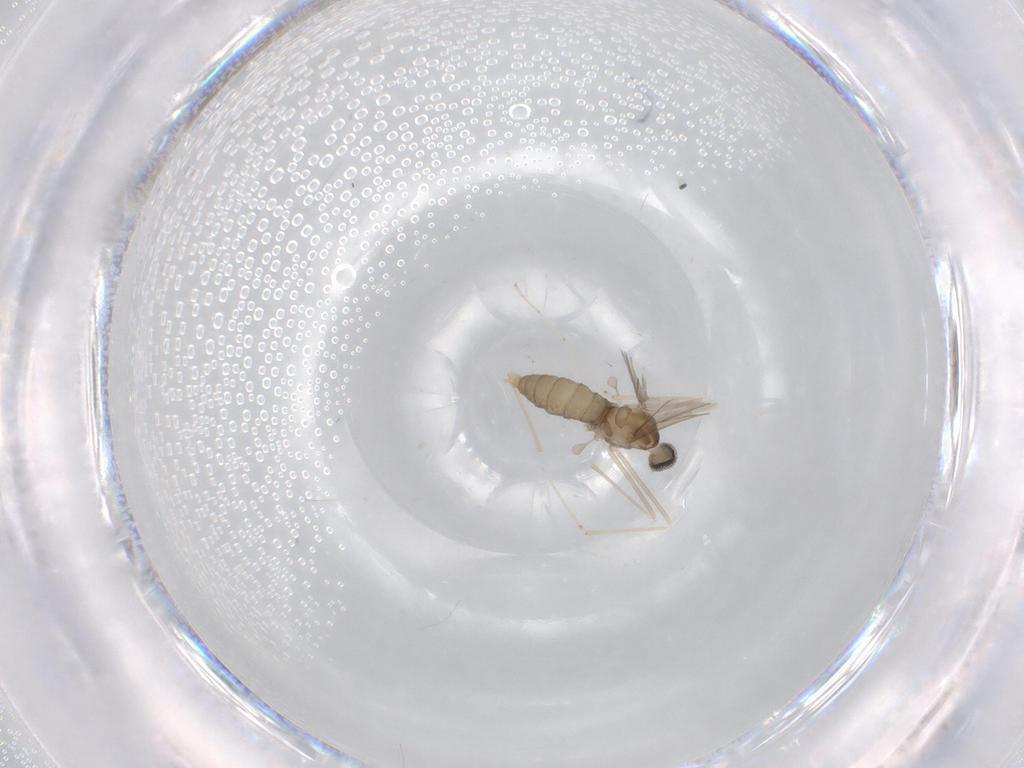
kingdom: Animalia
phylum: Arthropoda
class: Insecta
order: Diptera
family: Cecidomyiidae
